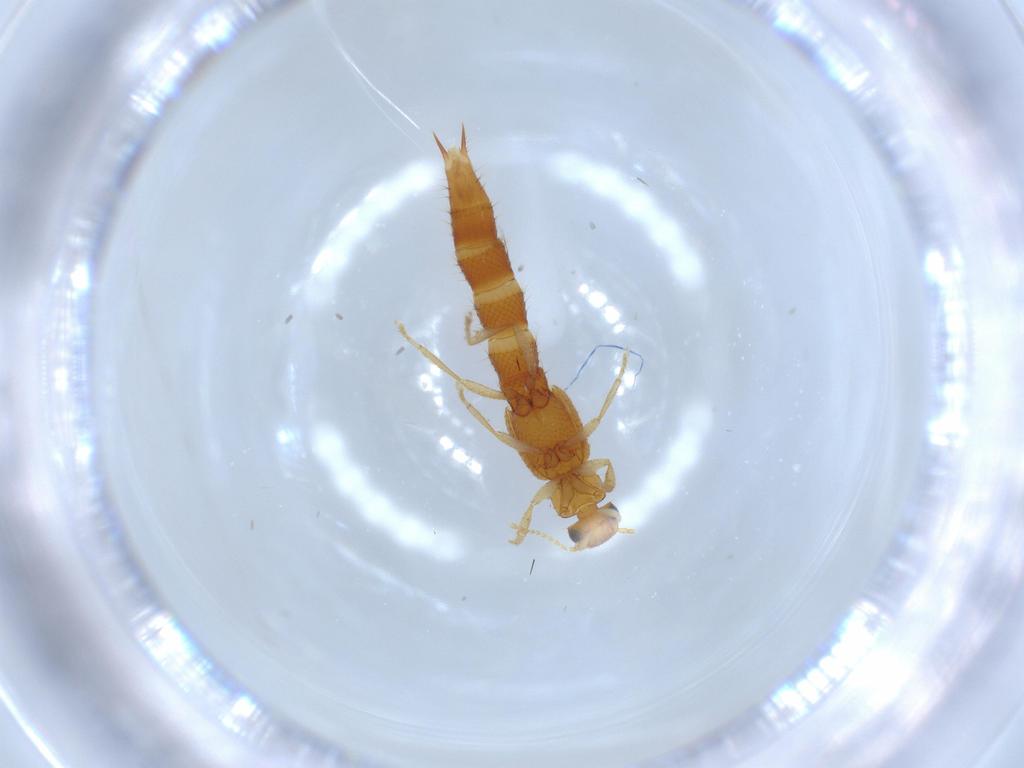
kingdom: Animalia
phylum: Arthropoda
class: Insecta
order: Coleoptera
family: Staphylinidae
